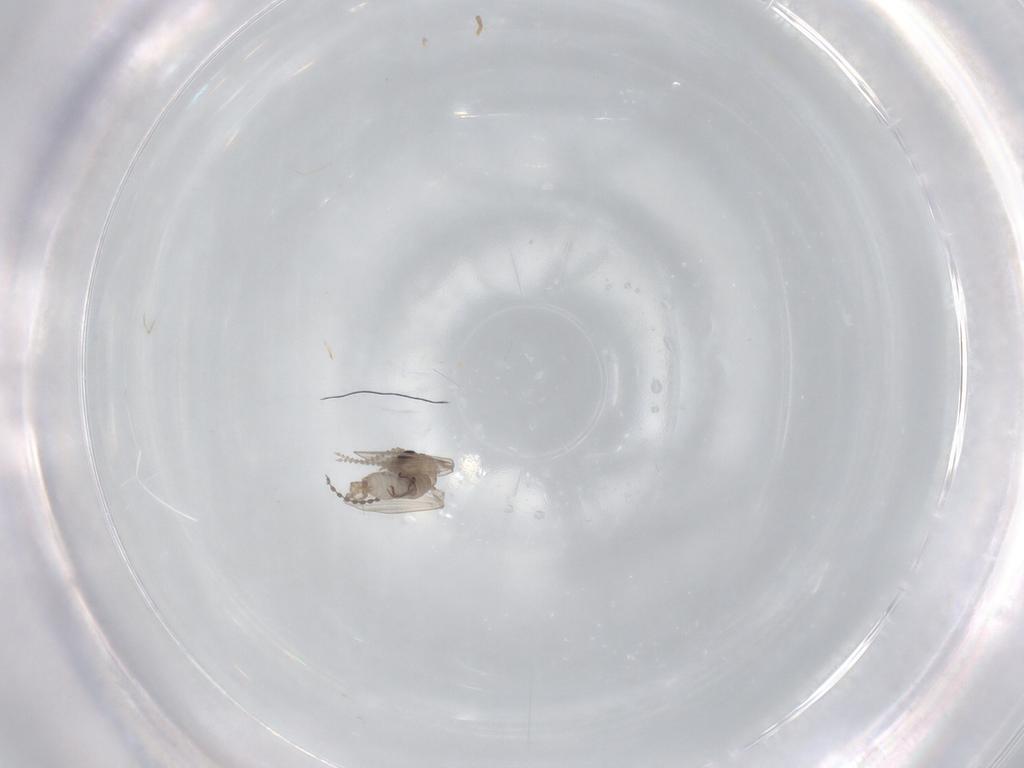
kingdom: Animalia
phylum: Arthropoda
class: Insecta
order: Diptera
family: Psychodidae
